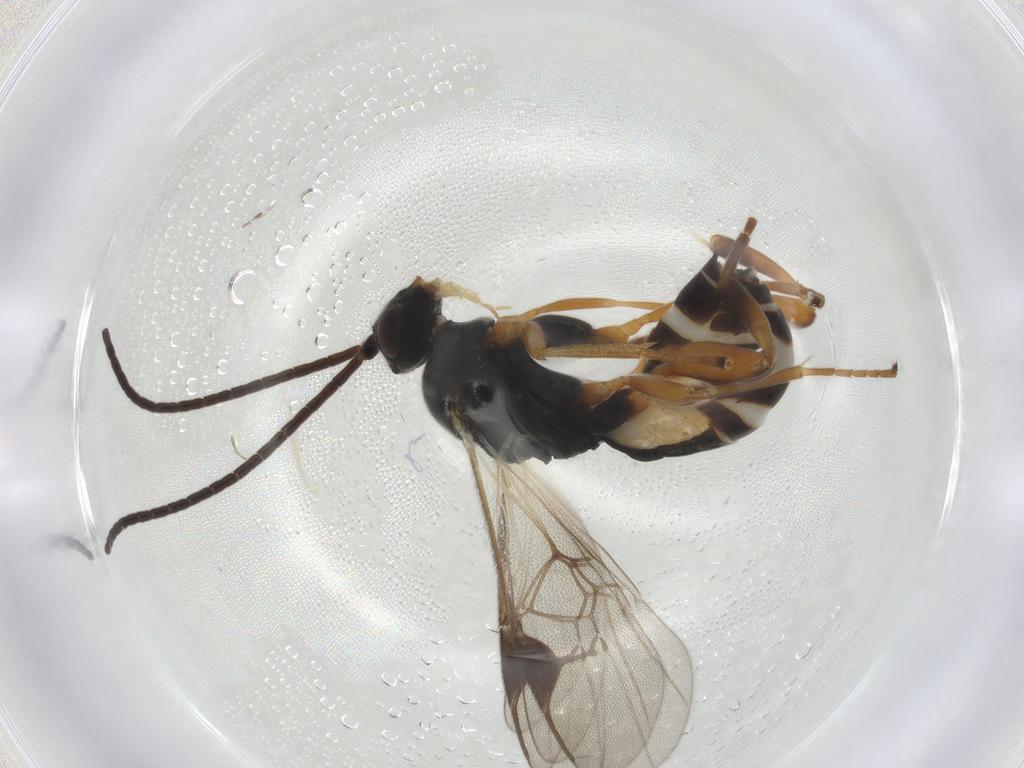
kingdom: Animalia
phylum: Arthropoda
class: Insecta
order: Hymenoptera
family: Braconidae
